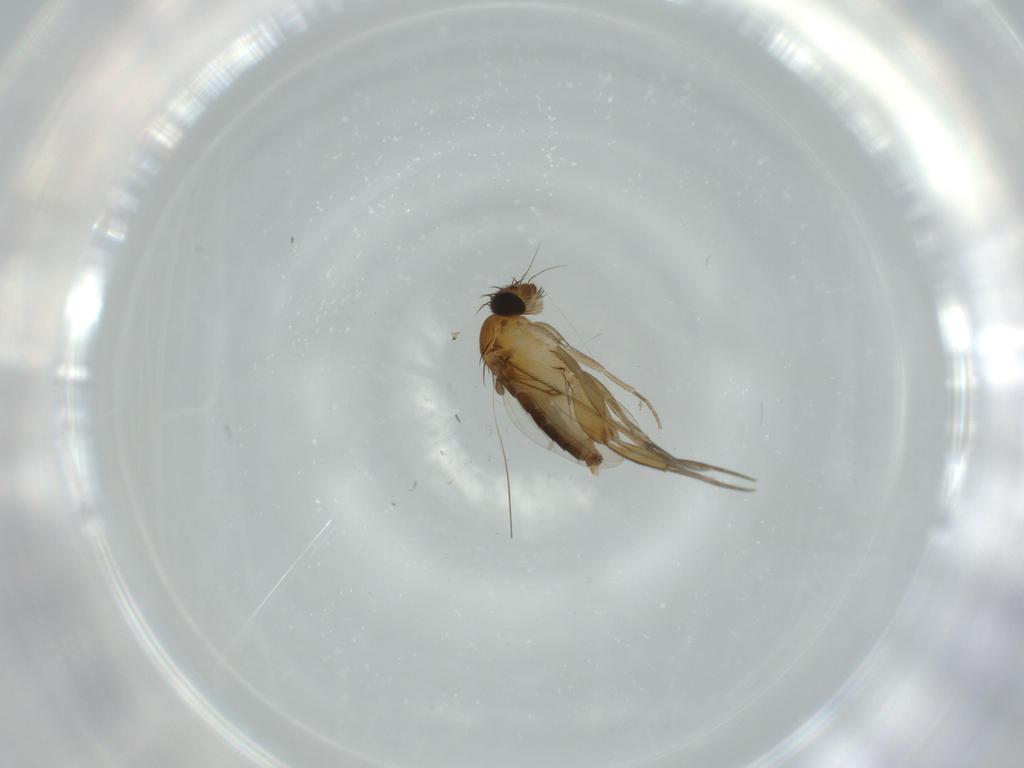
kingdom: Animalia
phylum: Arthropoda
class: Insecta
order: Diptera
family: Phoridae
